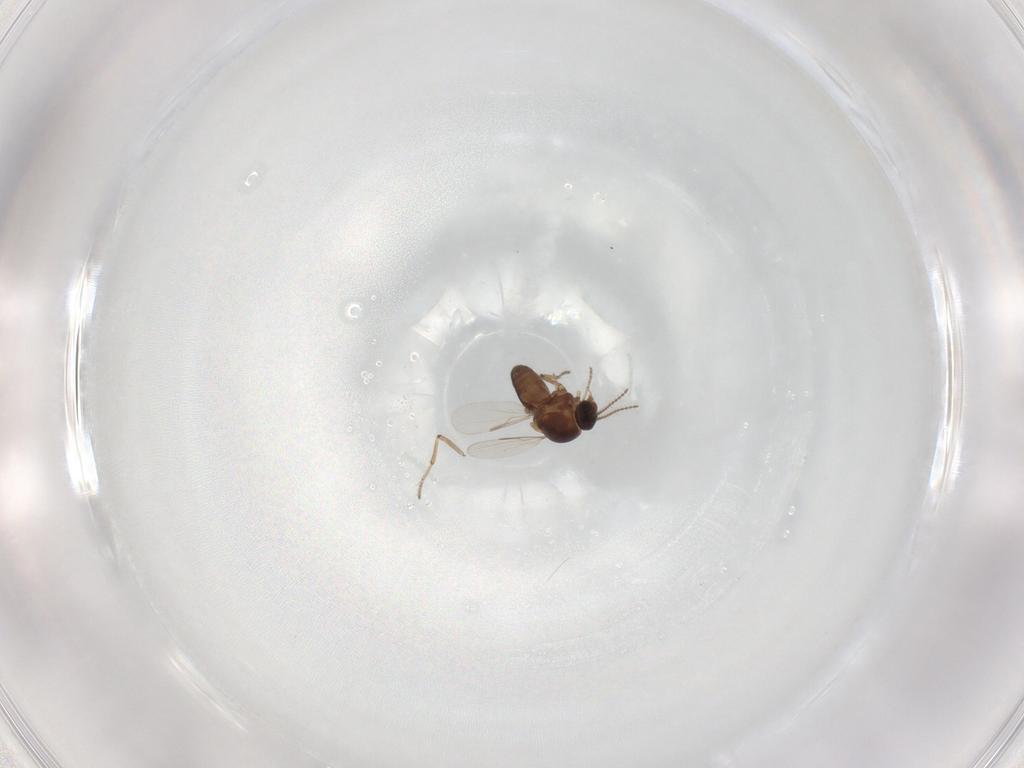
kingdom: Animalia
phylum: Arthropoda
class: Insecta
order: Diptera
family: Ceratopogonidae
